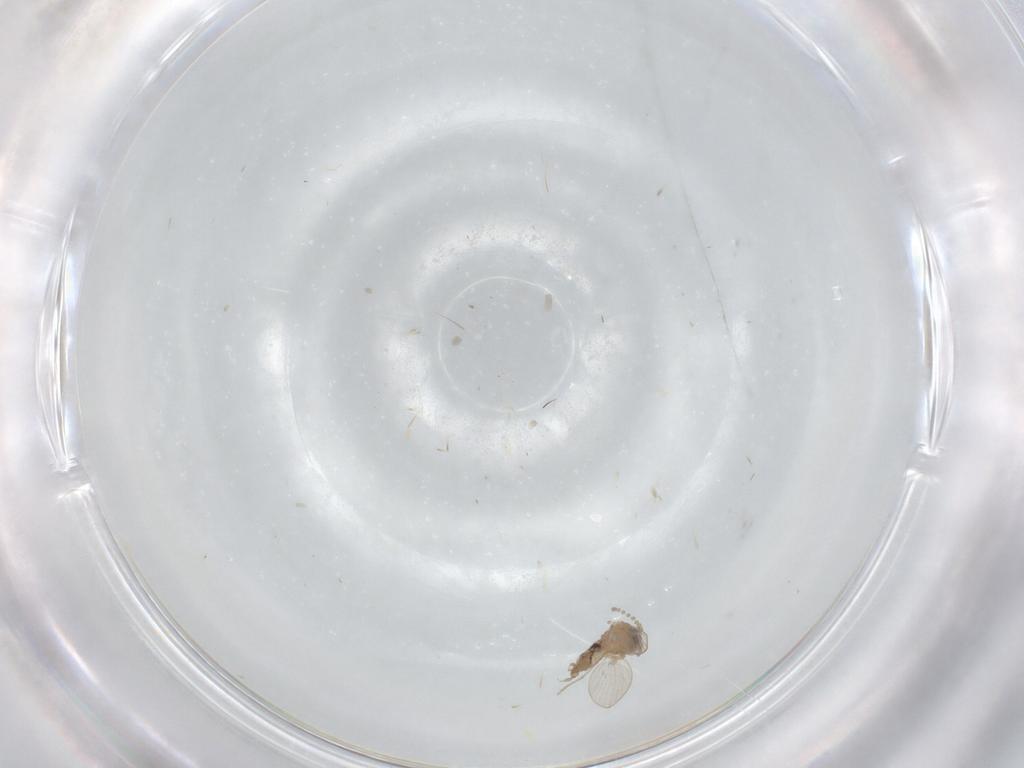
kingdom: Animalia
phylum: Arthropoda
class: Insecta
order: Diptera
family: Psychodidae
